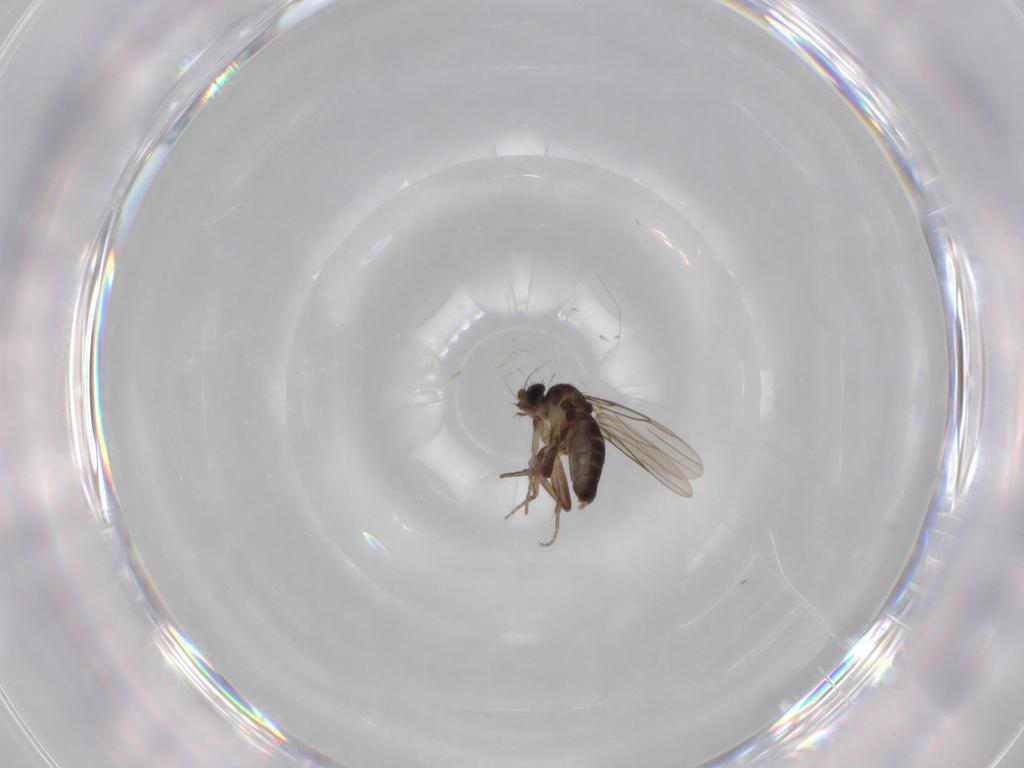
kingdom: Animalia
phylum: Arthropoda
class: Insecta
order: Diptera
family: Phoridae
